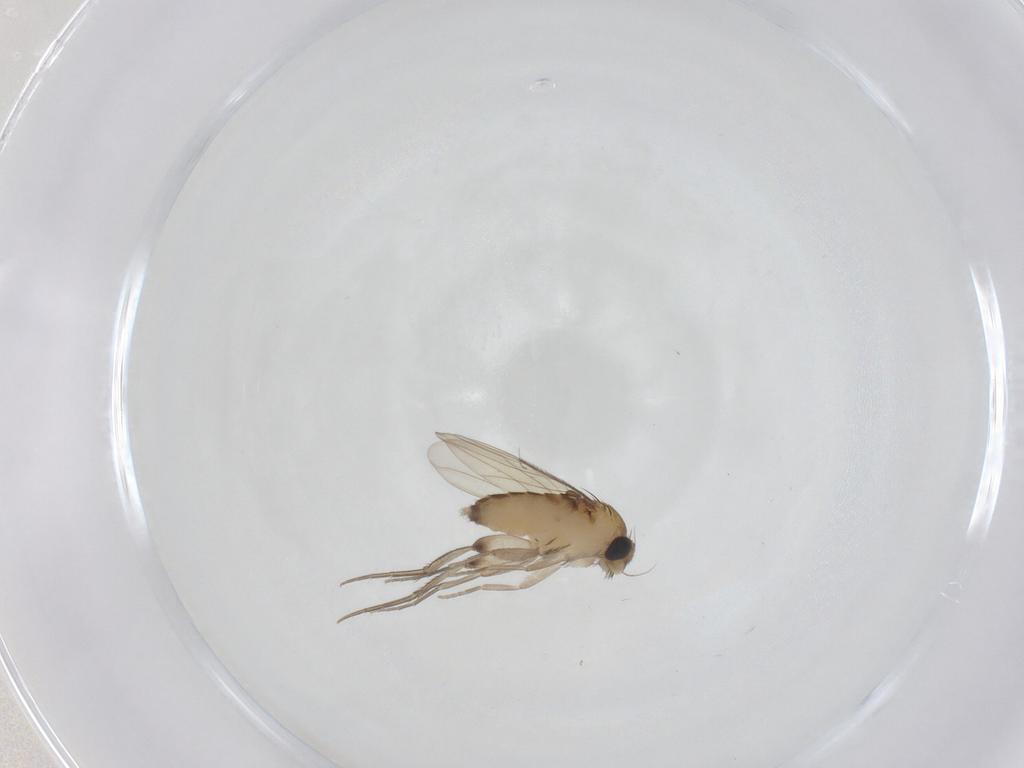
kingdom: Animalia
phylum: Arthropoda
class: Insecta
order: Diptera
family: Phoridae
